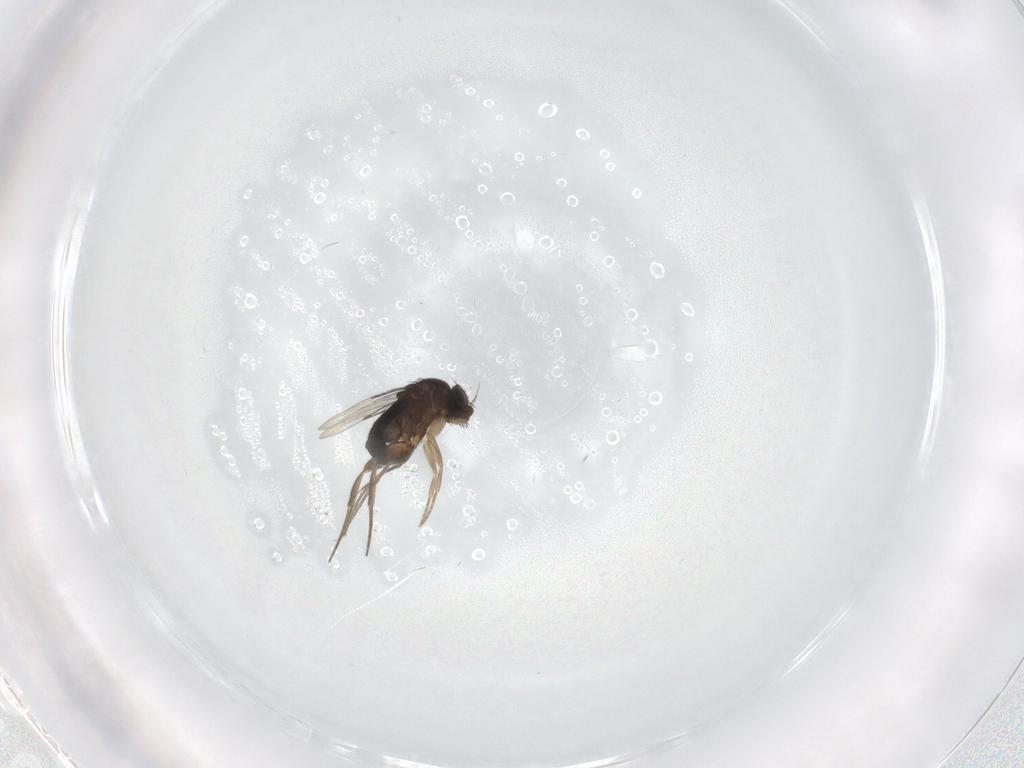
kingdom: Animalia
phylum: Arthropoda
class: Insecta
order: Diptera
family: Phoridae
